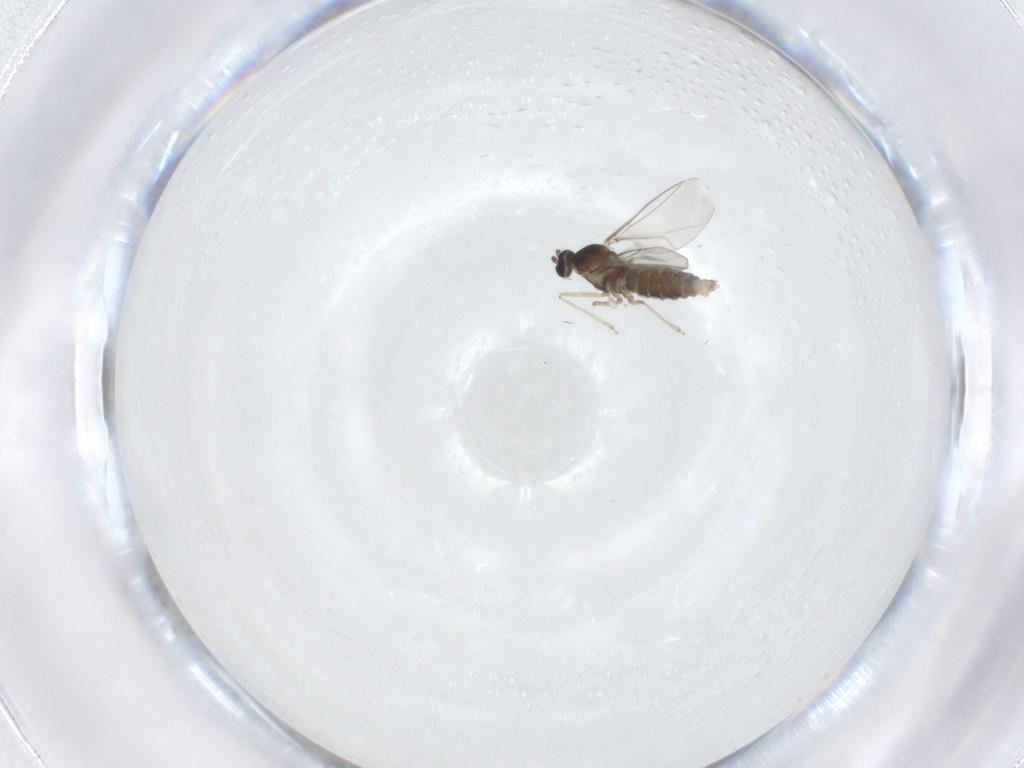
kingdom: Animalia
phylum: Arthropoda
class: Insecta
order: Diptera
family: Cecidomyiidae
